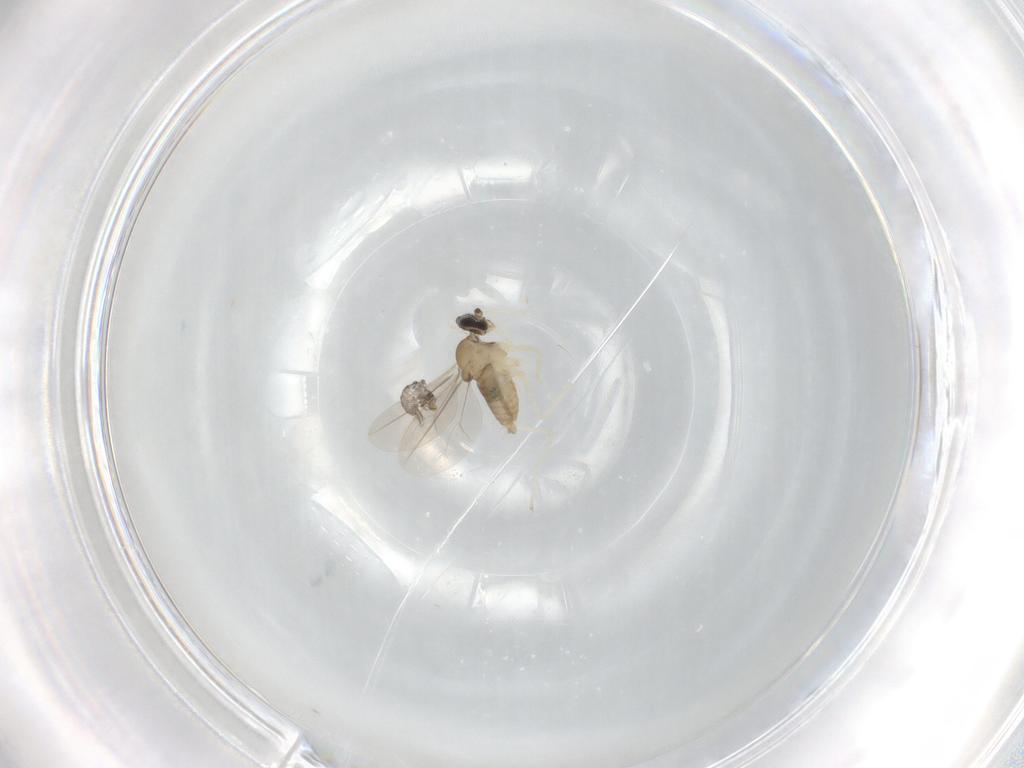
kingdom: Animalia
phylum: Arthropoda
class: Insecta
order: Diptera
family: Cecidomyiidae
